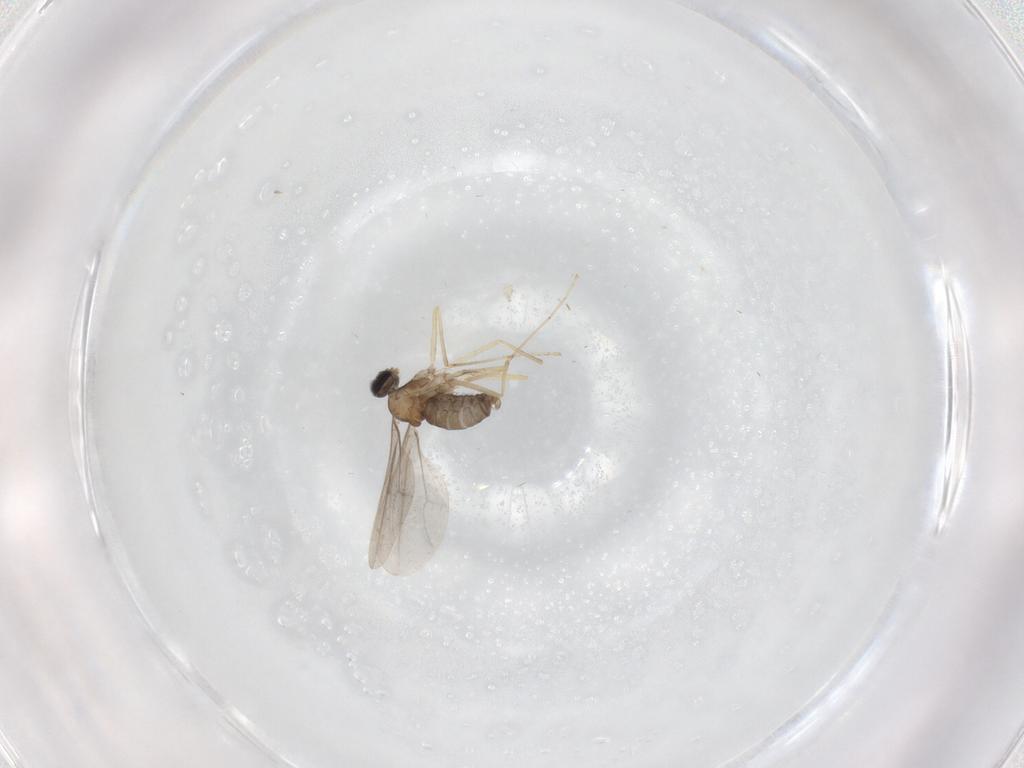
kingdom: Animalia
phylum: Arthropoda
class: Insecta
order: Diptera
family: Cecidomyiidae
